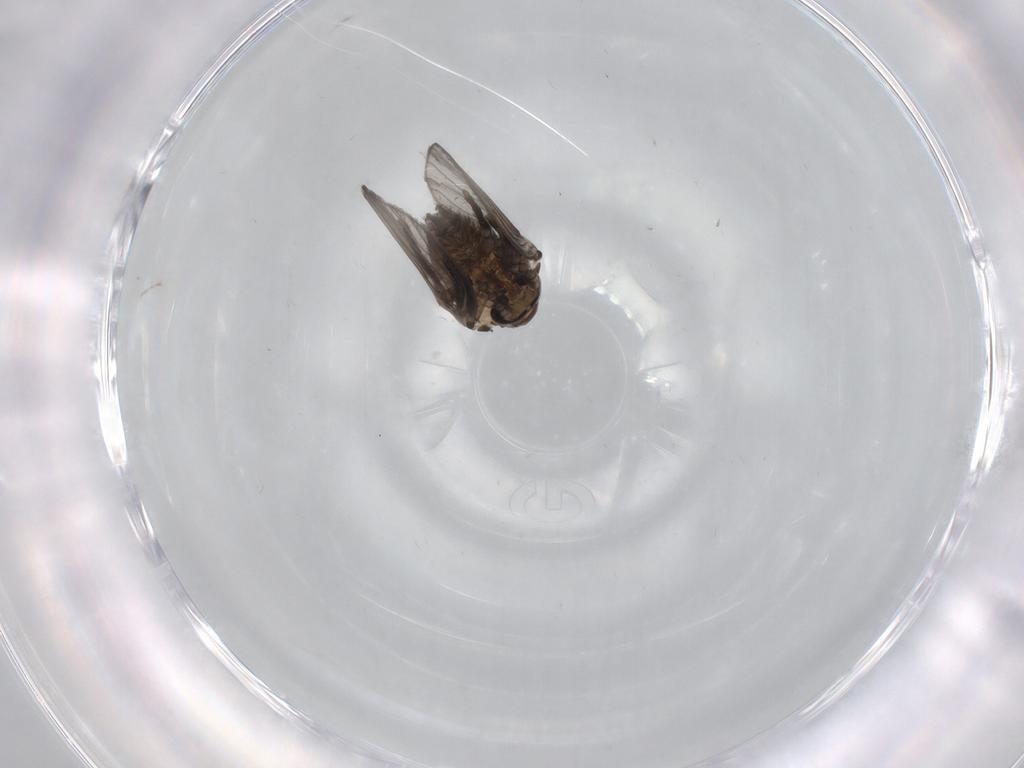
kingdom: Animalia
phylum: Arthropoda
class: Insecta
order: Diptera
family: Psychodidae
